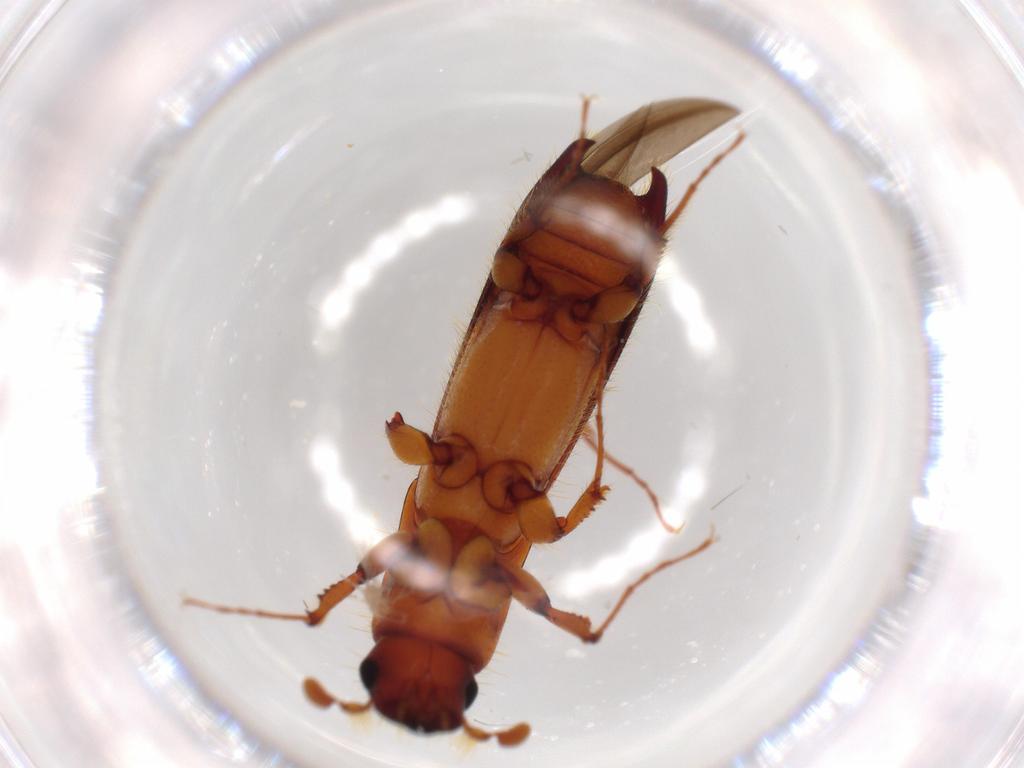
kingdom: Animalia
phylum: Arthropoda
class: Insecta
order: Coleoptera
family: Curculionidae
